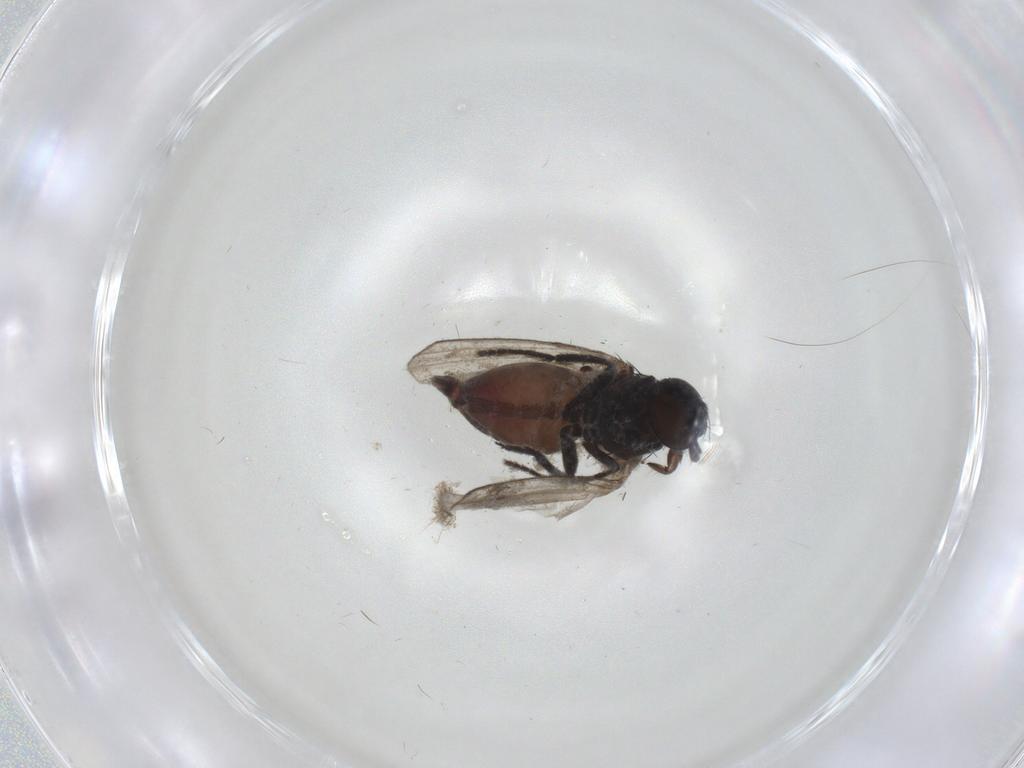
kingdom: Animalia
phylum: Arthropoda
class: Insecta
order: Diptera
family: Milichiidae
